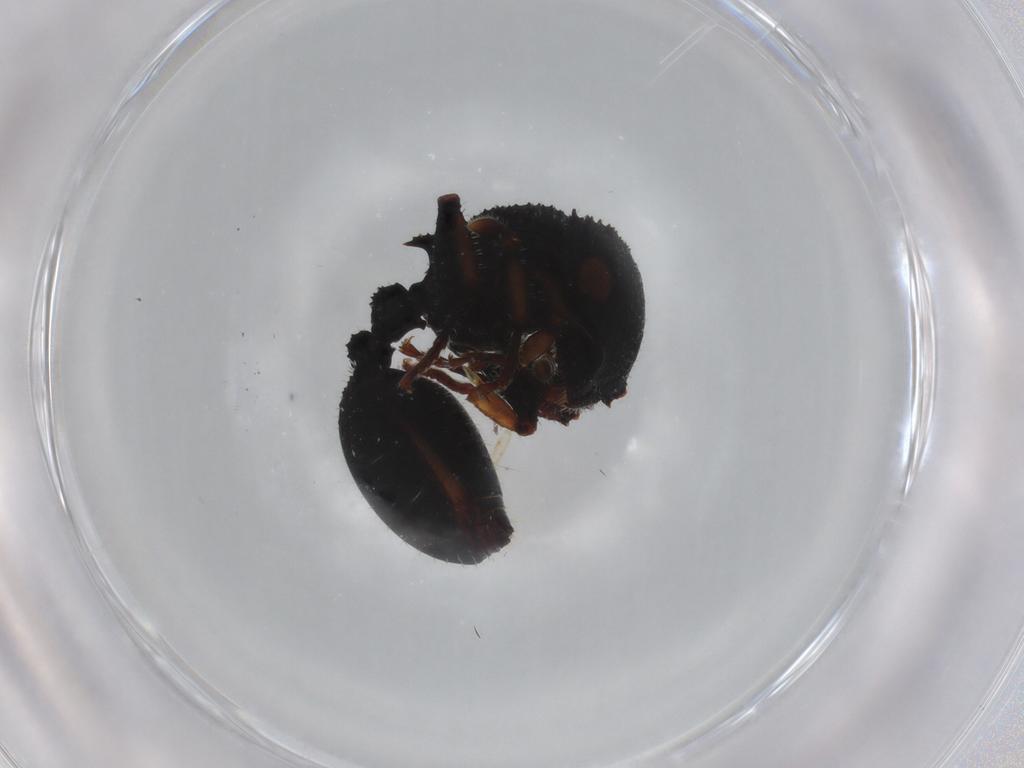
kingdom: Animalia
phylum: Arthropoda
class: Insecta
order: Hymenoptera
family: Formicidae
